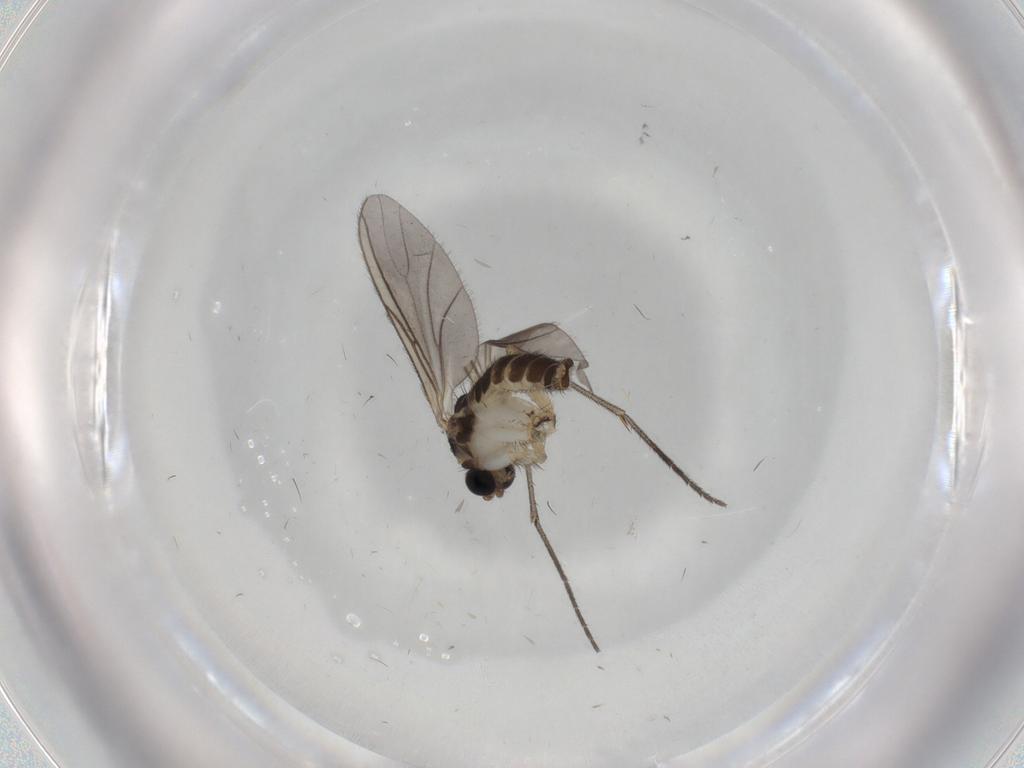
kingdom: Animalia
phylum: Arthropoda
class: Insecta
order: Diptera
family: Sciaridae
